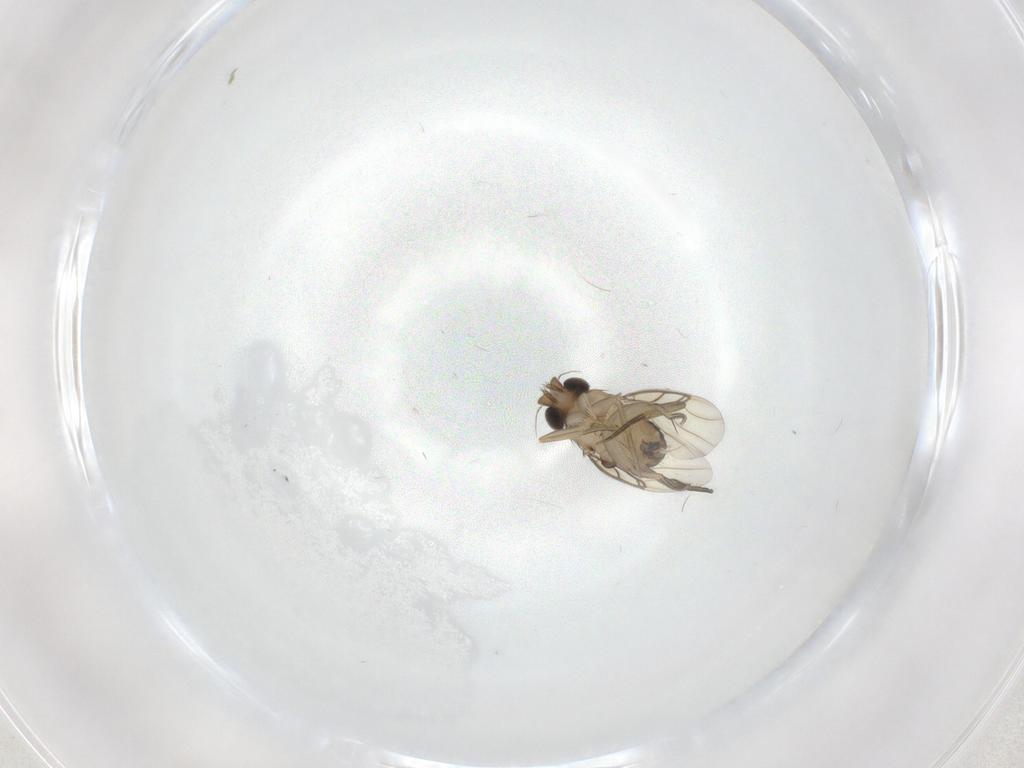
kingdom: Animalia
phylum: Arthropoda
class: Insecta
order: Diptera
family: Phoridae
